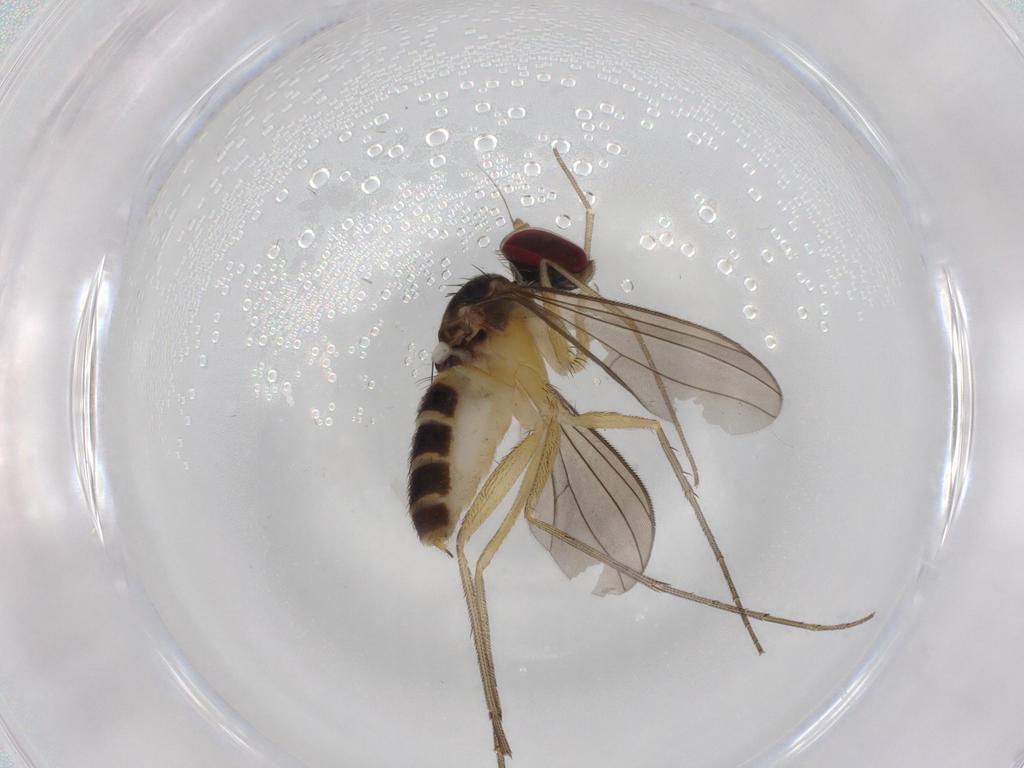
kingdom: Animalia
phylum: Arthropoda
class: Insecta
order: Diptera
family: Dolichopodidae
